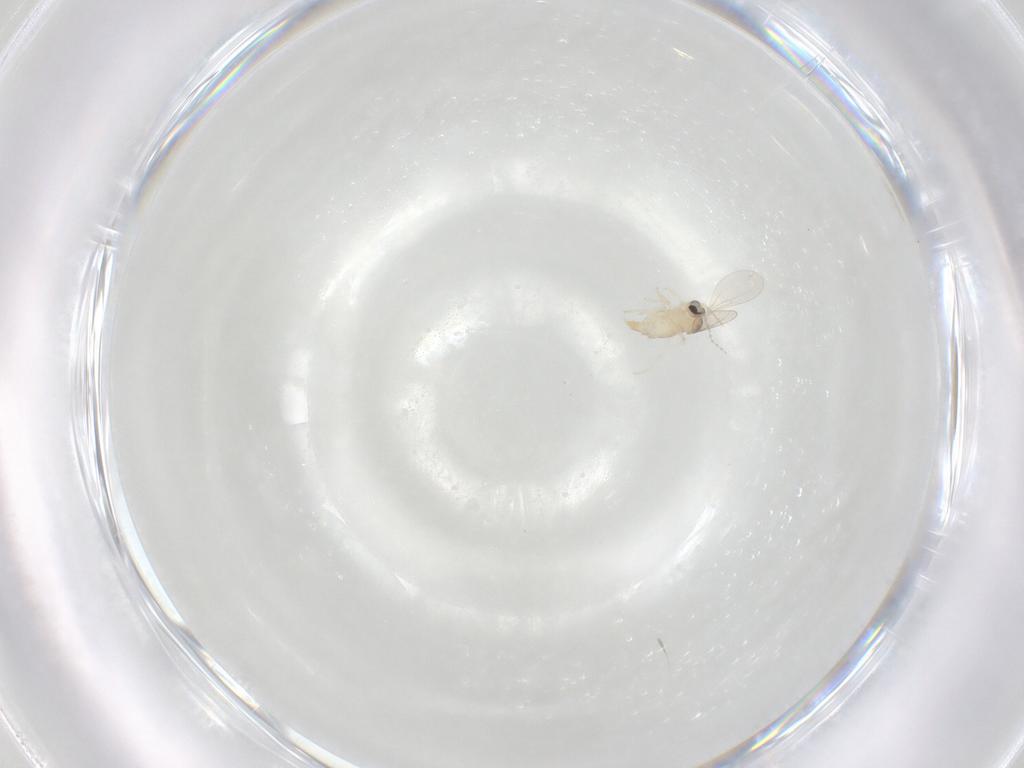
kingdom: Animalia
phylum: Arthropoda
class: Insecta
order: Diptera
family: Cecidomyiidae
